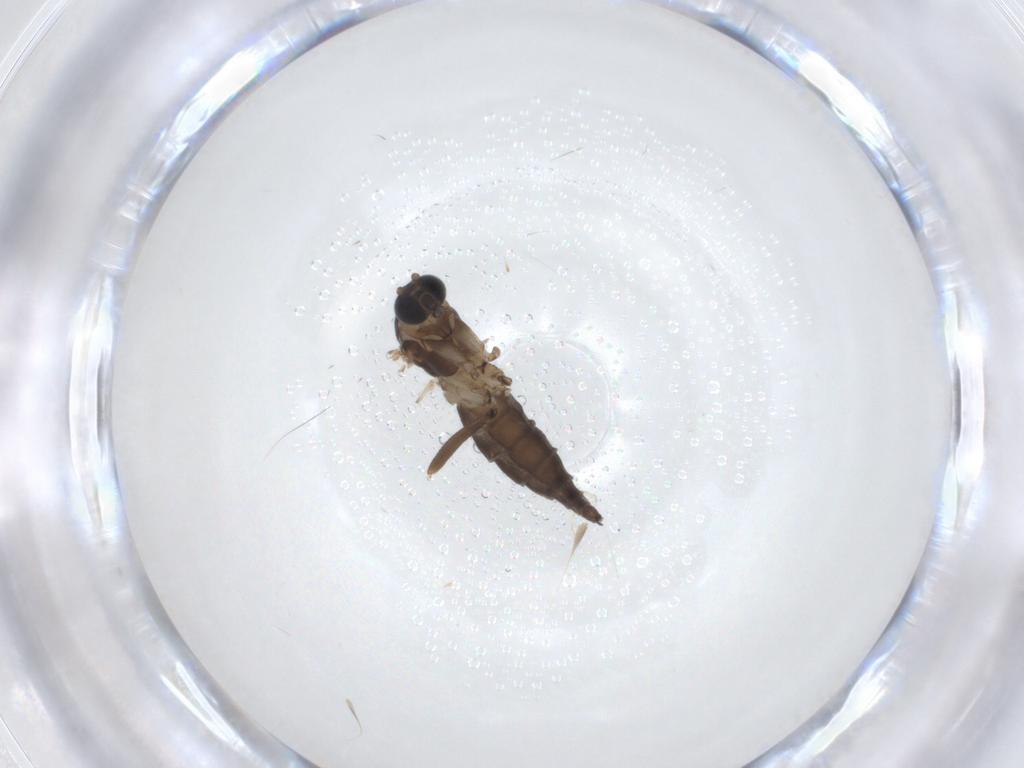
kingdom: Animalia
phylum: Arthropoda
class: Insecta
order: Diptera
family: Sciaridae
